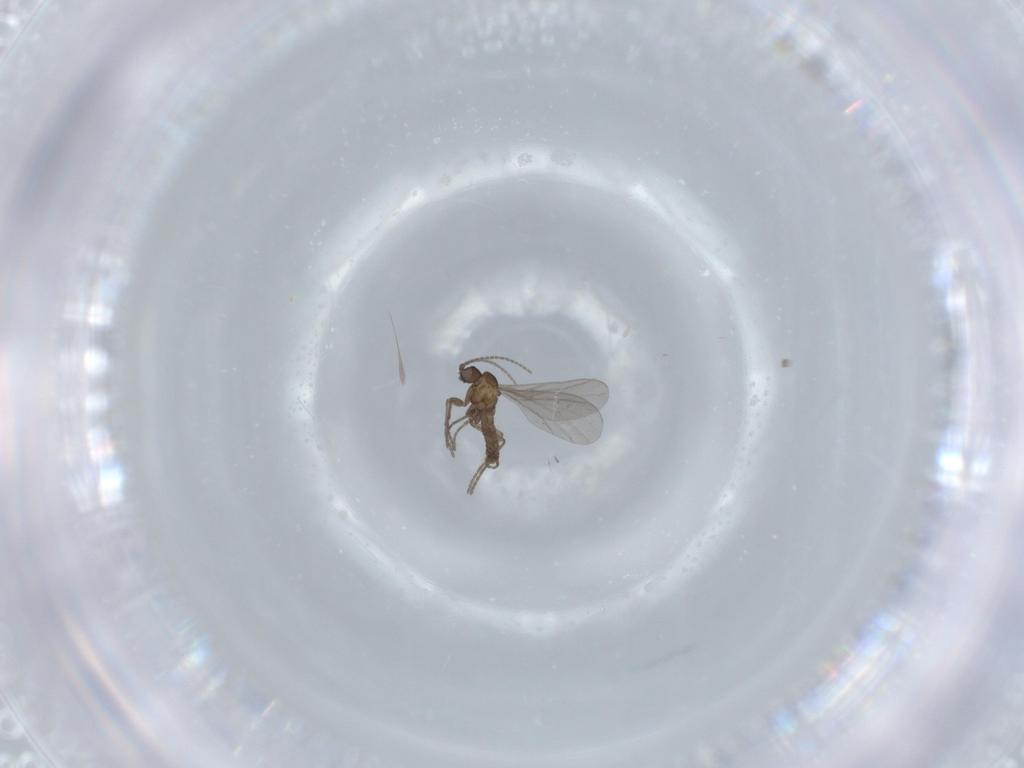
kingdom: Animalia
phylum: Arthropoda
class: Insecta
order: Diptera
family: Sciaridae
